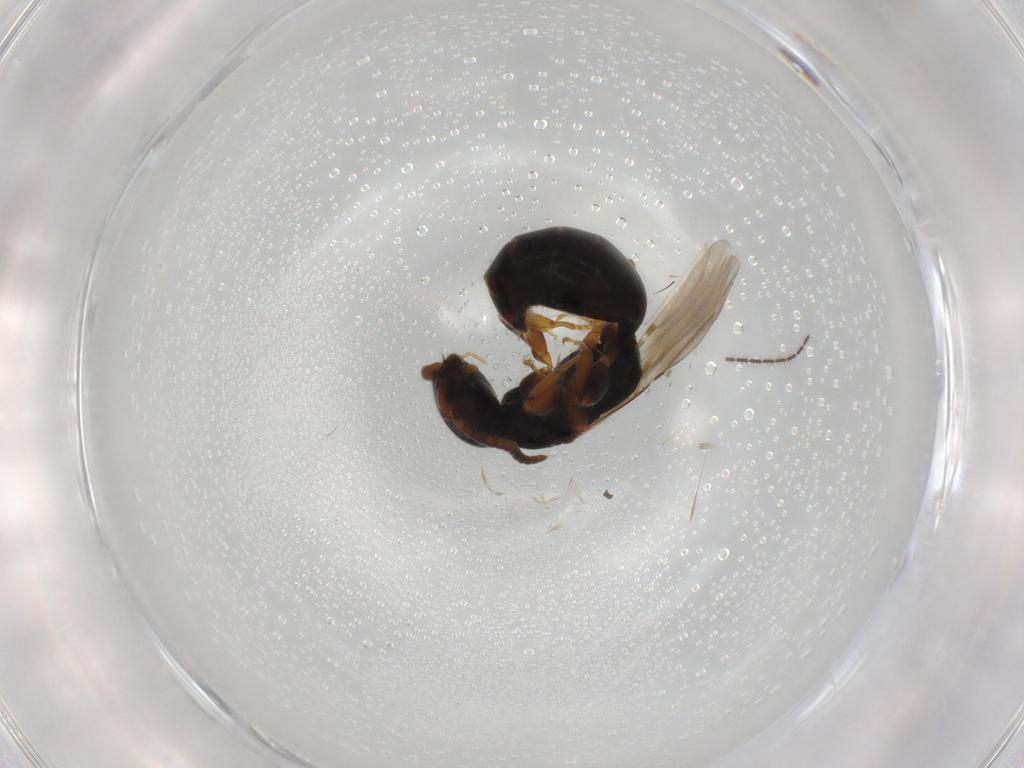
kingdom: Animalia
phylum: Arthropoda
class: Insecta
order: Hymenoptera
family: Bethylidae
